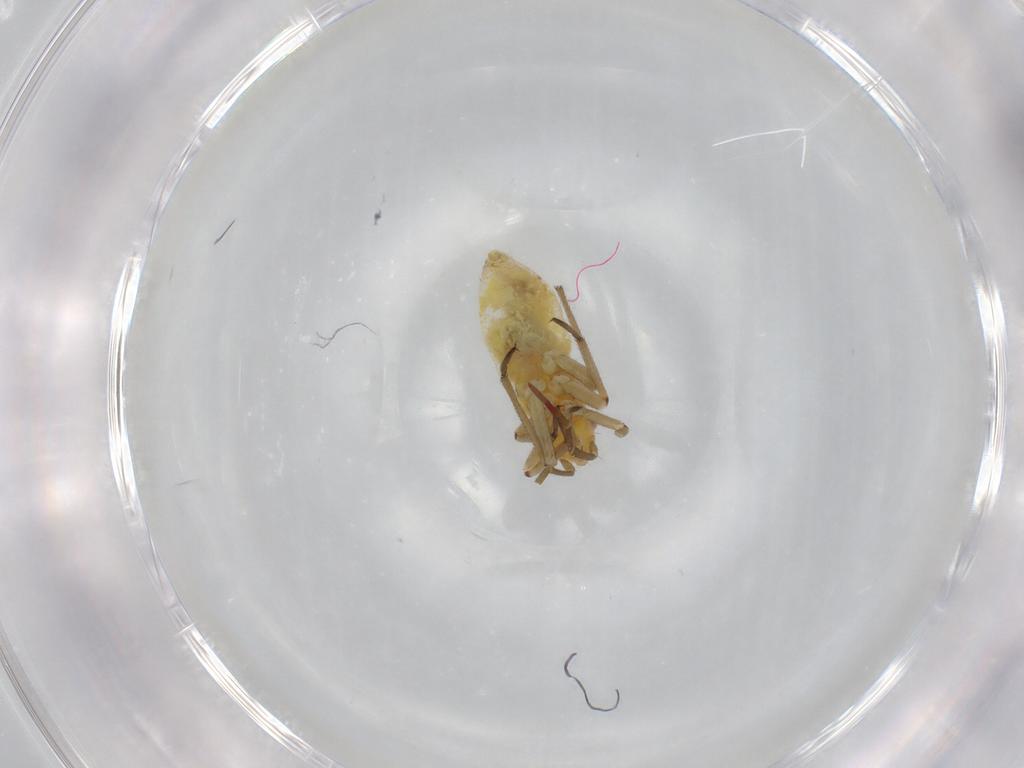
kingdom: Animalia
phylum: Arthropoda
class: Insecta
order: Hemiptera
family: Miridae
